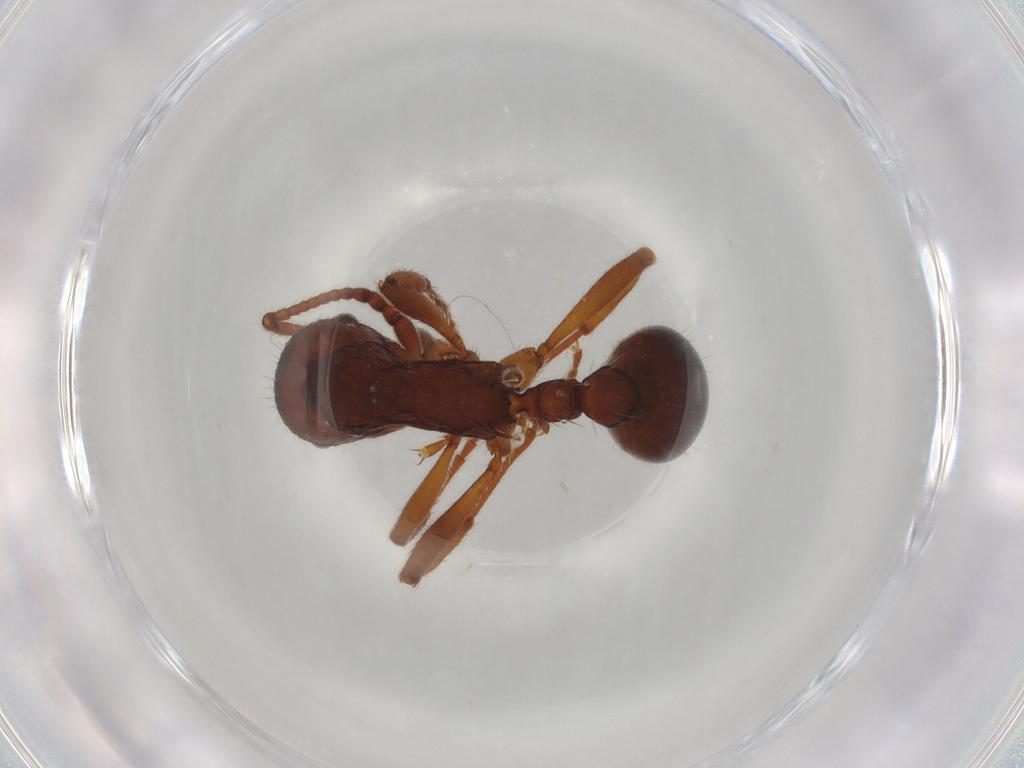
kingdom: Animalia
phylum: Arthropoda
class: Insecta
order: Hymenoptera
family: Formicidae
